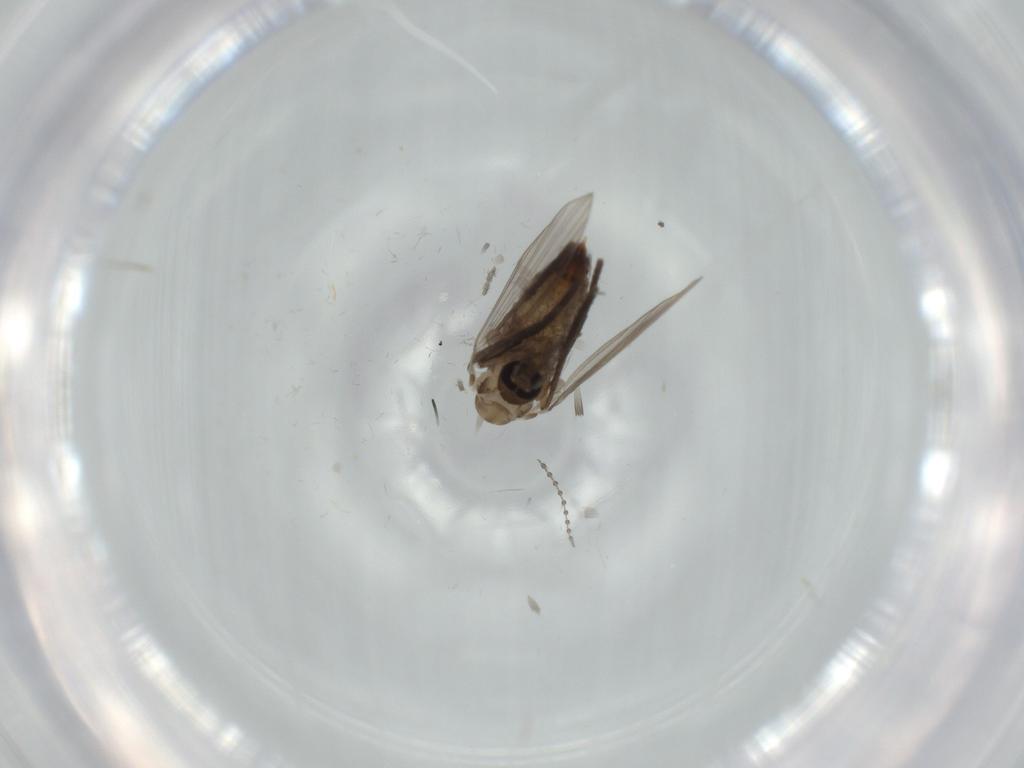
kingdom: Animalia
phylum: Arthropoda
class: Insecta
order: Diptera
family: Psychodidae
